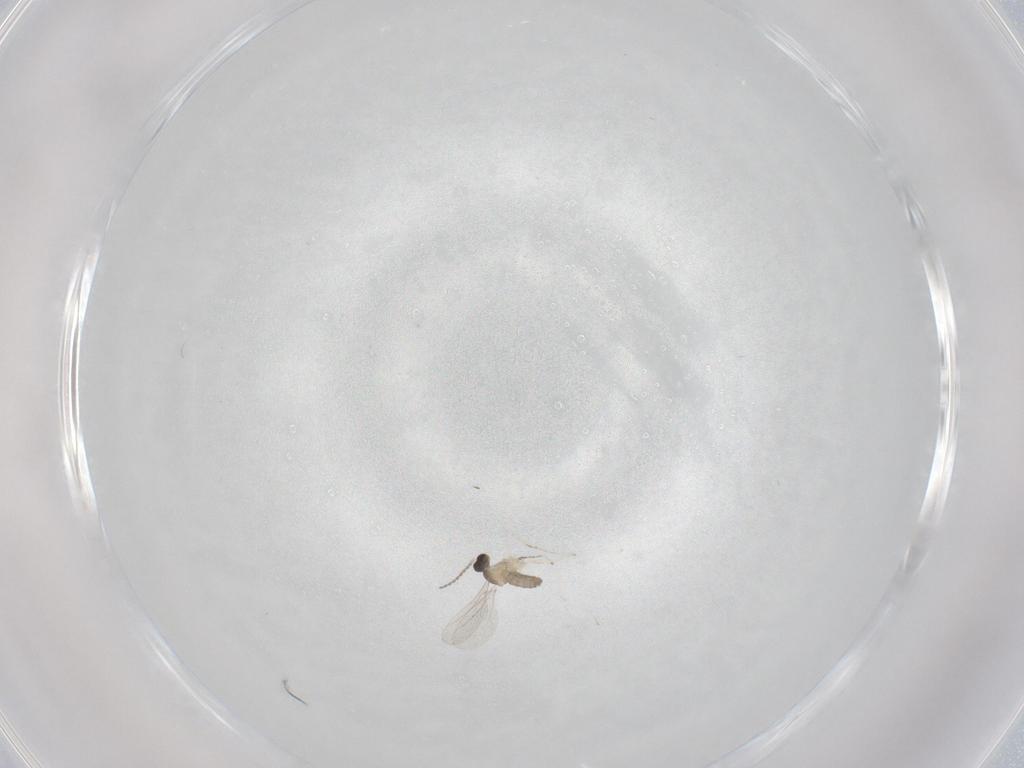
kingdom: Animalia
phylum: Arthropoda
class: Insecta
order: Diptera
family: Cecidomyiidae
